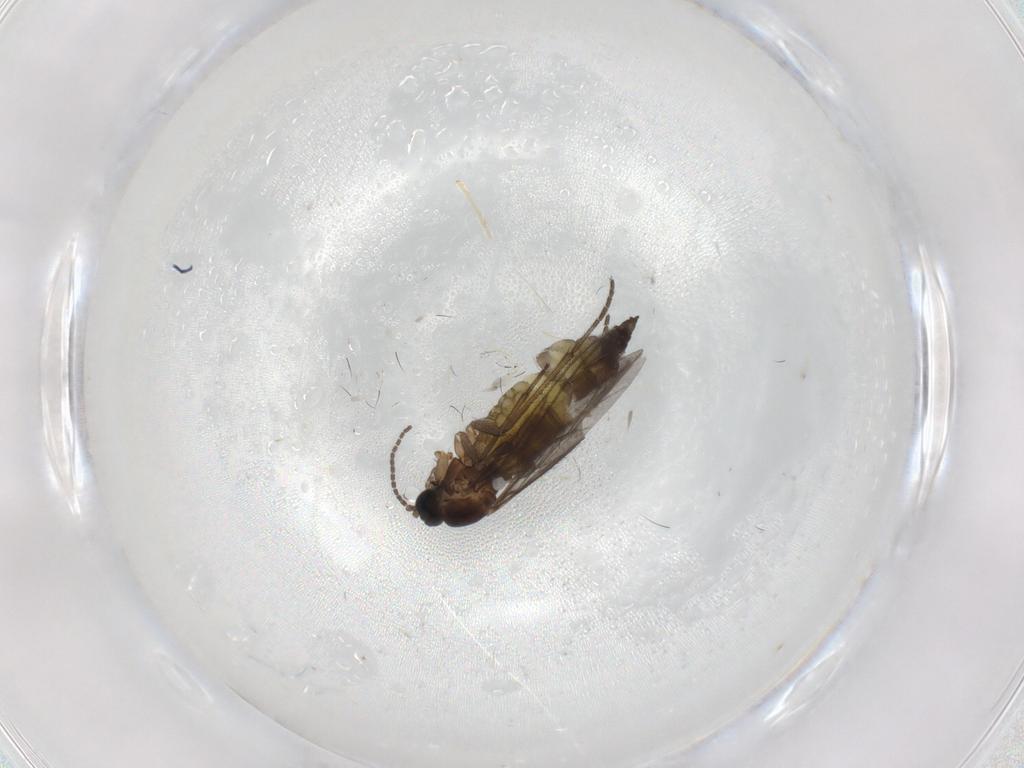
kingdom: Animalia
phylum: Arthropoda
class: Insecta
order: Diptera
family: Sciaridae
